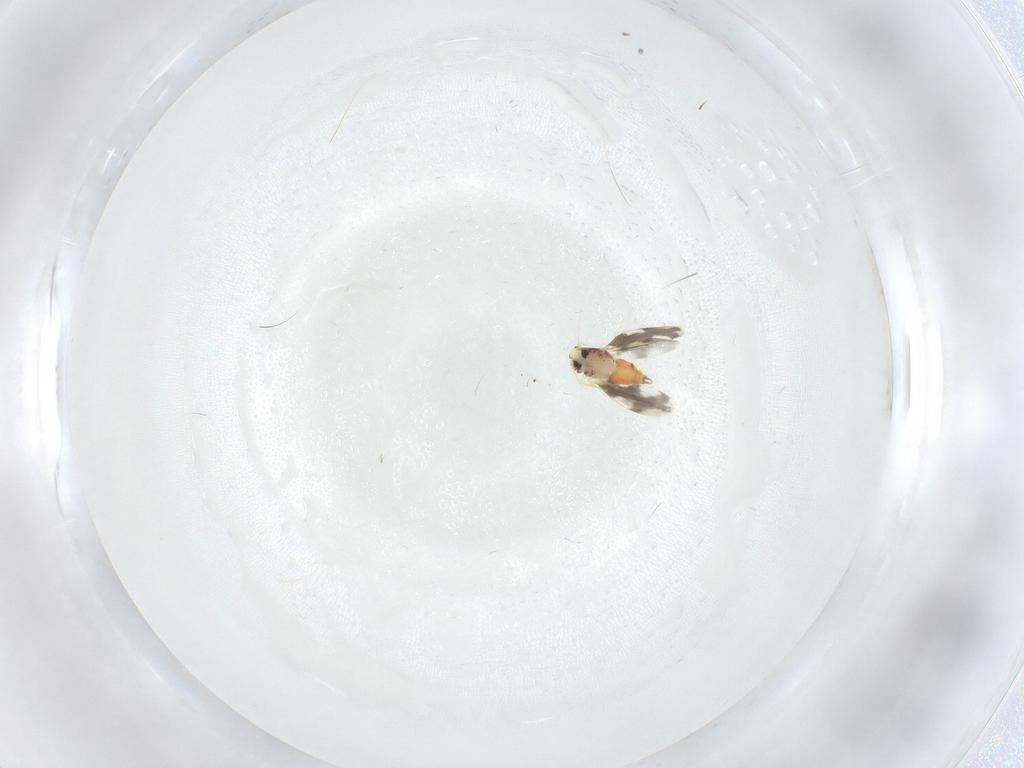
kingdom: Animalia
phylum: Arthropoda
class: Insecta
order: Hemiptera
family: Aleyrodidae
